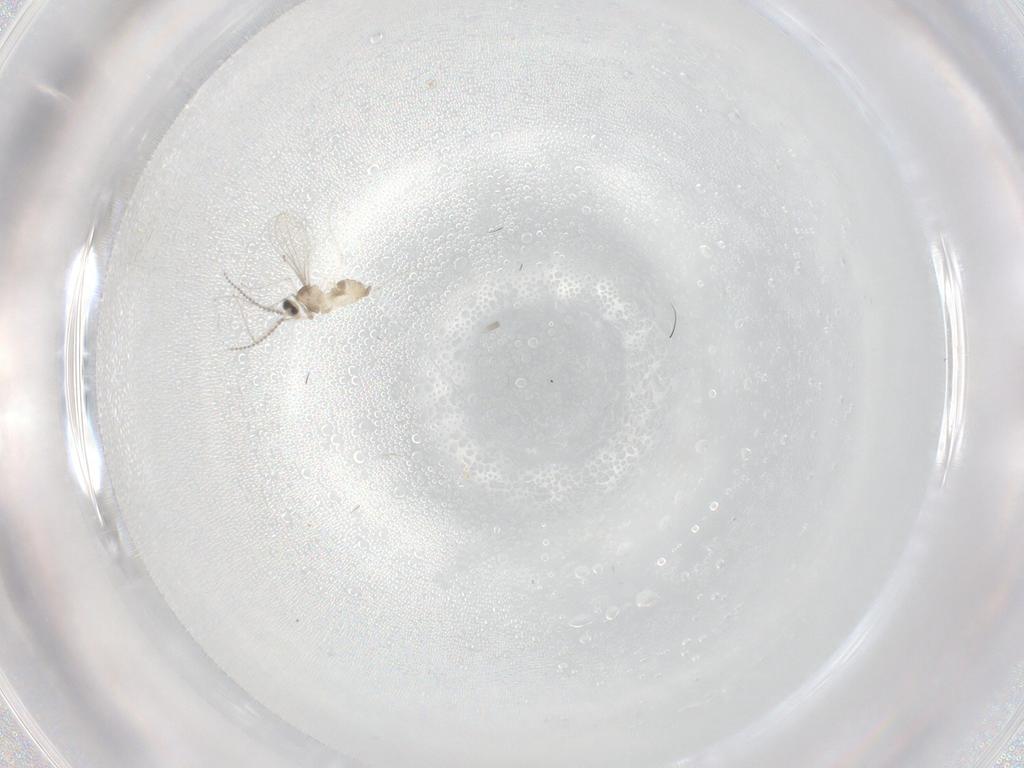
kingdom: Animalia
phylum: Arthropoda
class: Insecta
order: Diptera
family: Cecidomyiidae
